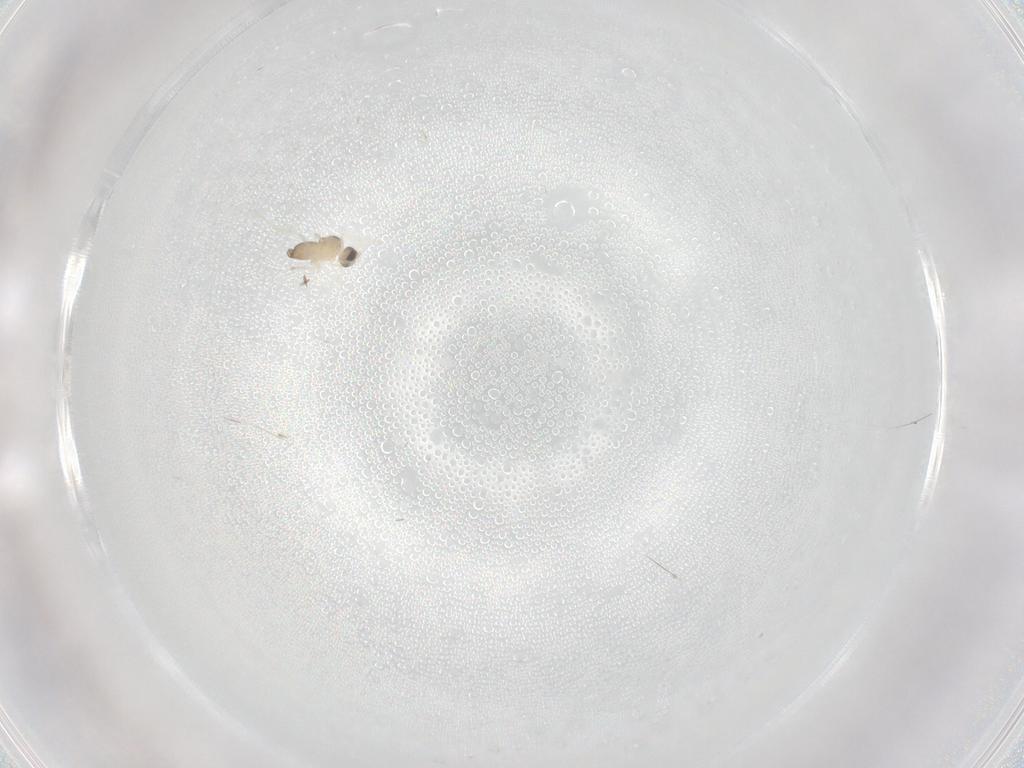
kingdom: Animalia
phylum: Arthropoda
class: Insecta
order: Diptera
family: Cecidomyiidae
